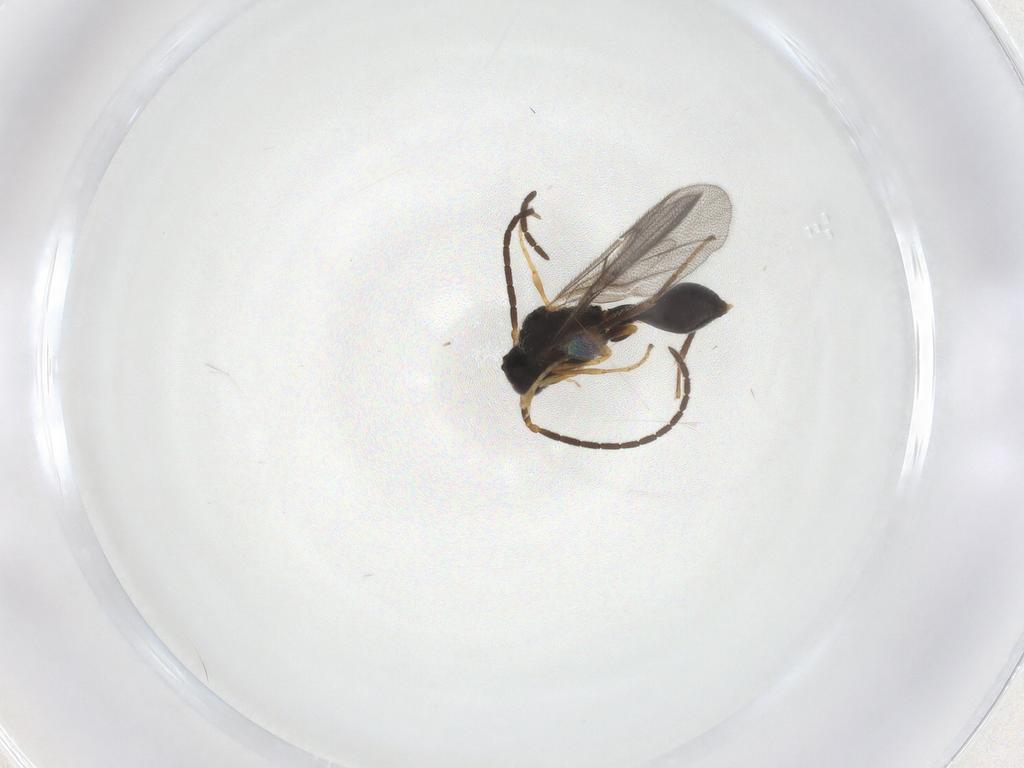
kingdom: Animalia
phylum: Arthropoda
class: Insecta
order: Hymenoptera
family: Diapriidae
